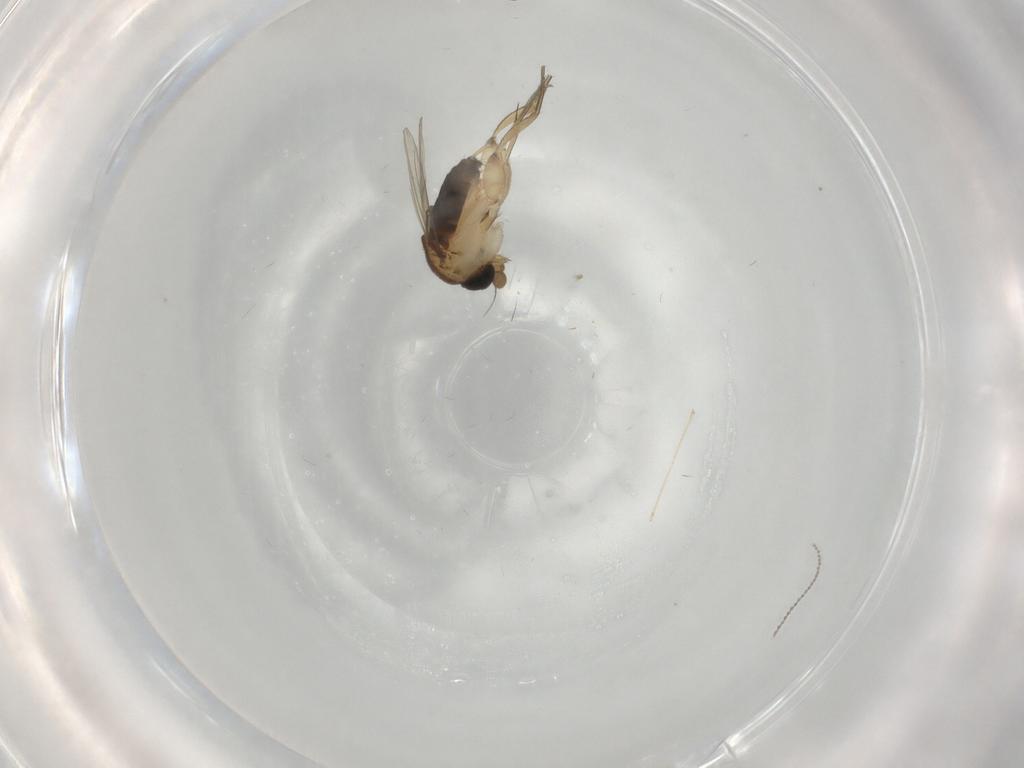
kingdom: Animalia
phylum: Arthropoda
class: Insecta
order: Diptera
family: Phoridae
